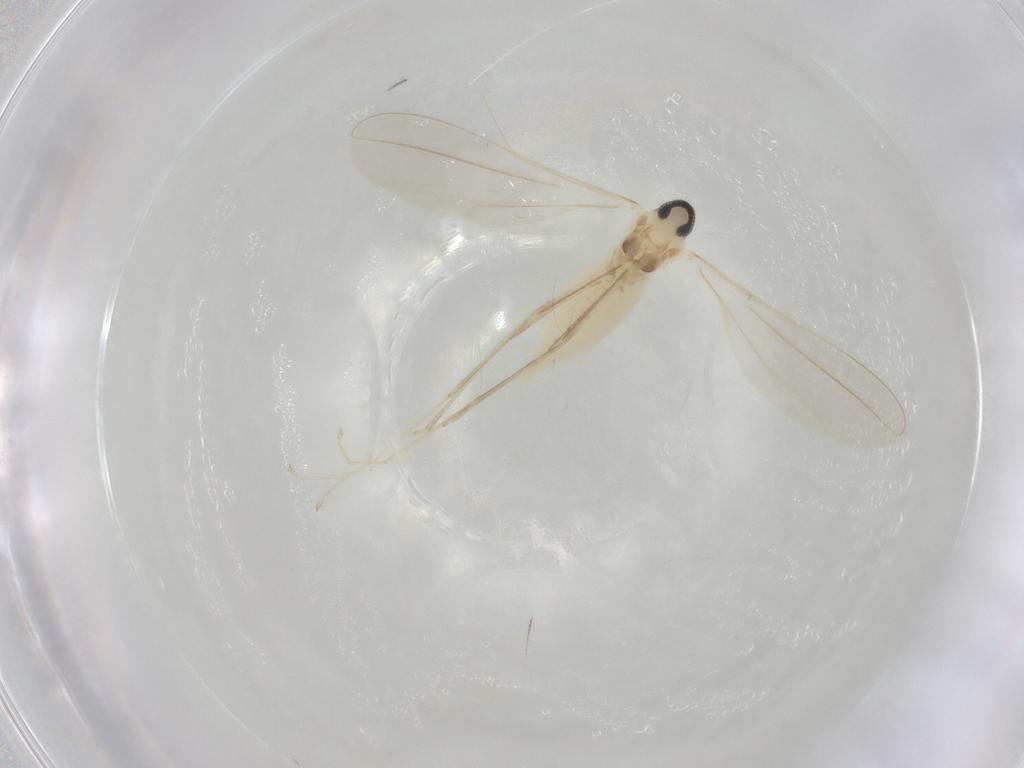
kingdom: Animalia
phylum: Arthropoda
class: Insecta
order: Diptera
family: Chironomidae
